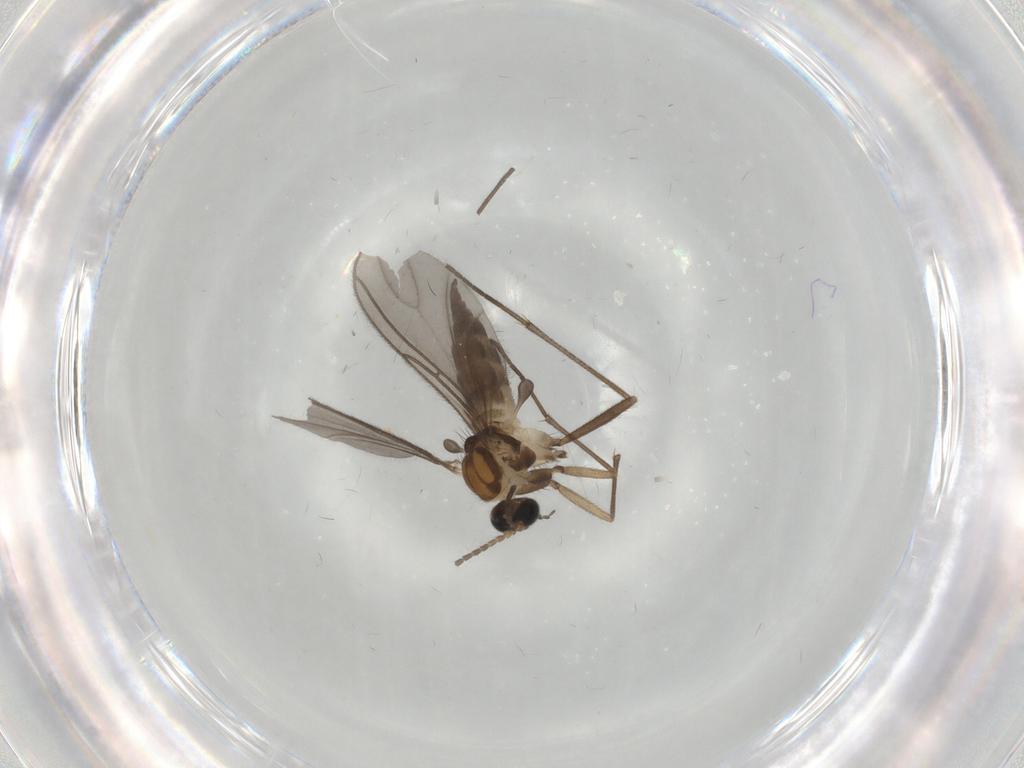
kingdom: Animalia
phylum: Arthropoda
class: Insecta
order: Diptera
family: Sciaridae
